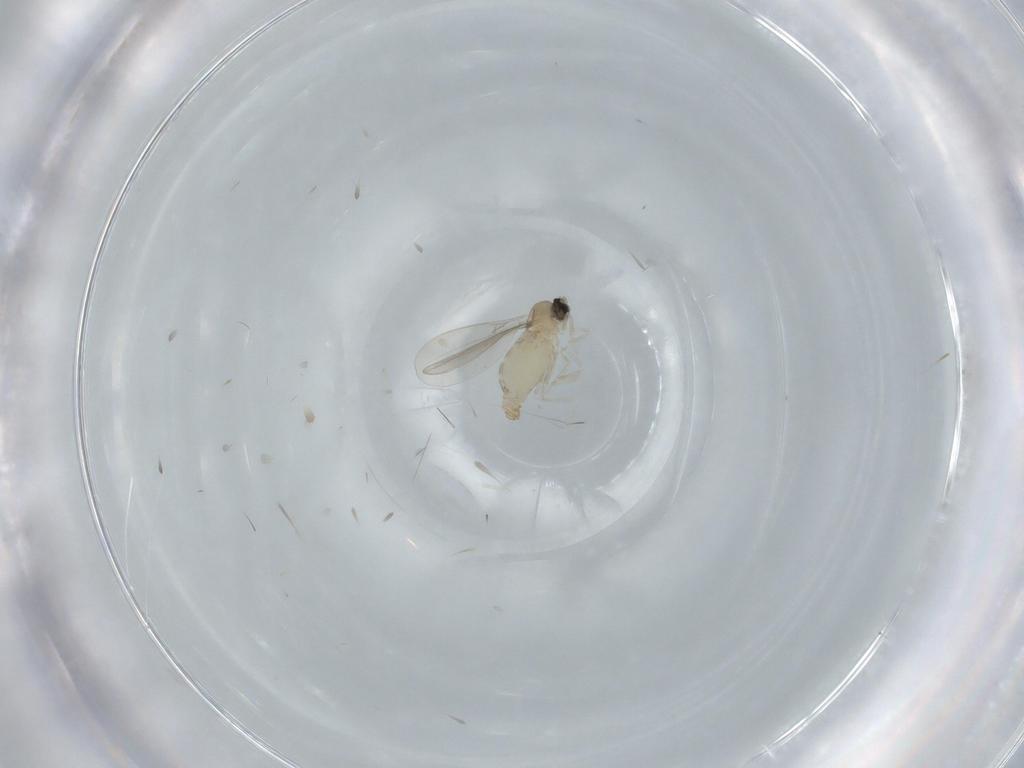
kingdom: Animalia
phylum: Arthropoda
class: Insecta
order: Diptera
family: Cecidomyiidae
